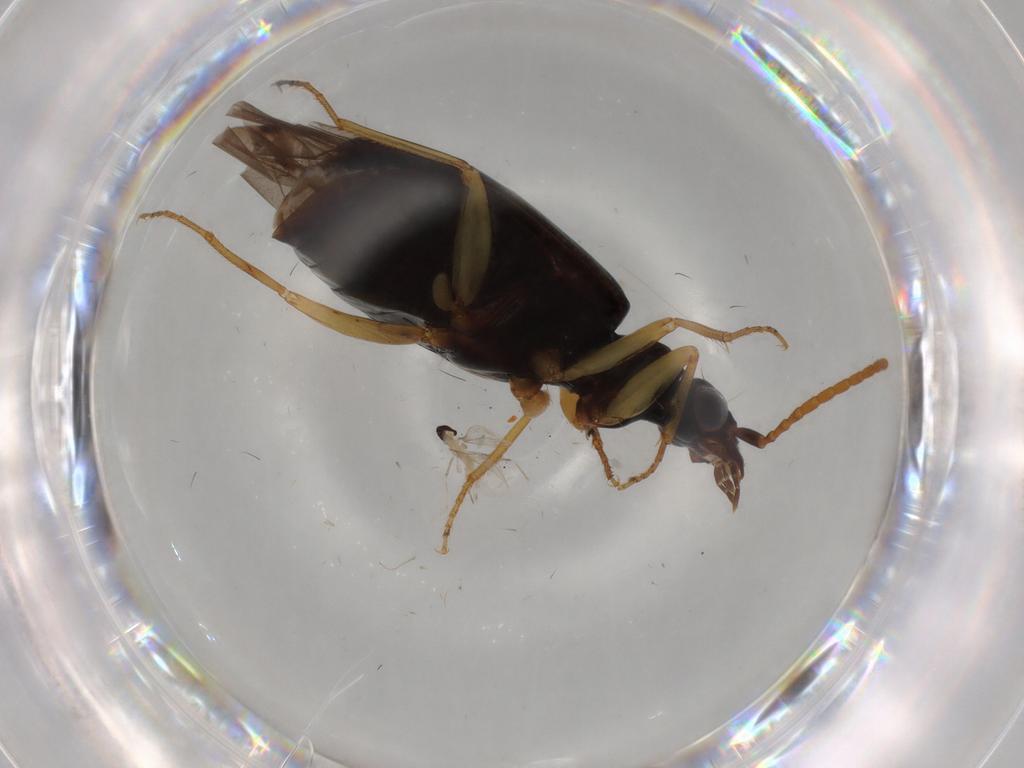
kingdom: Animalia
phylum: Arthropoda
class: Insecta
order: Coleoptera
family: Carabidae
